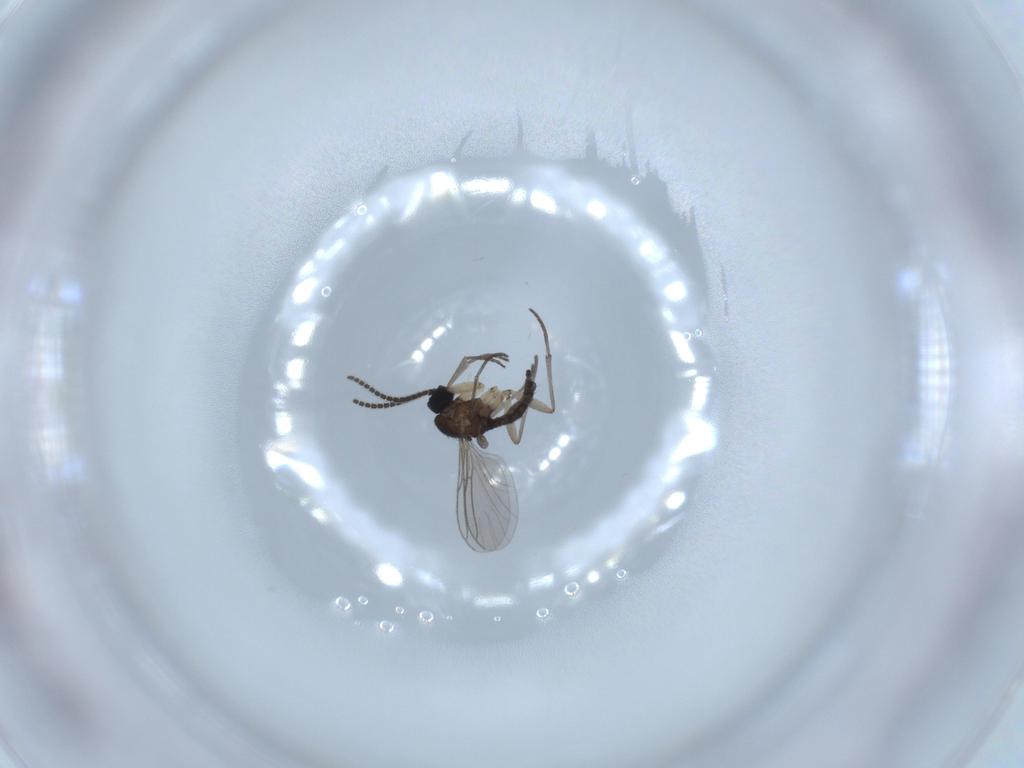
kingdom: Animalia
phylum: Arthropoda
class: Insecta
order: Diptera
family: Sciaridae
